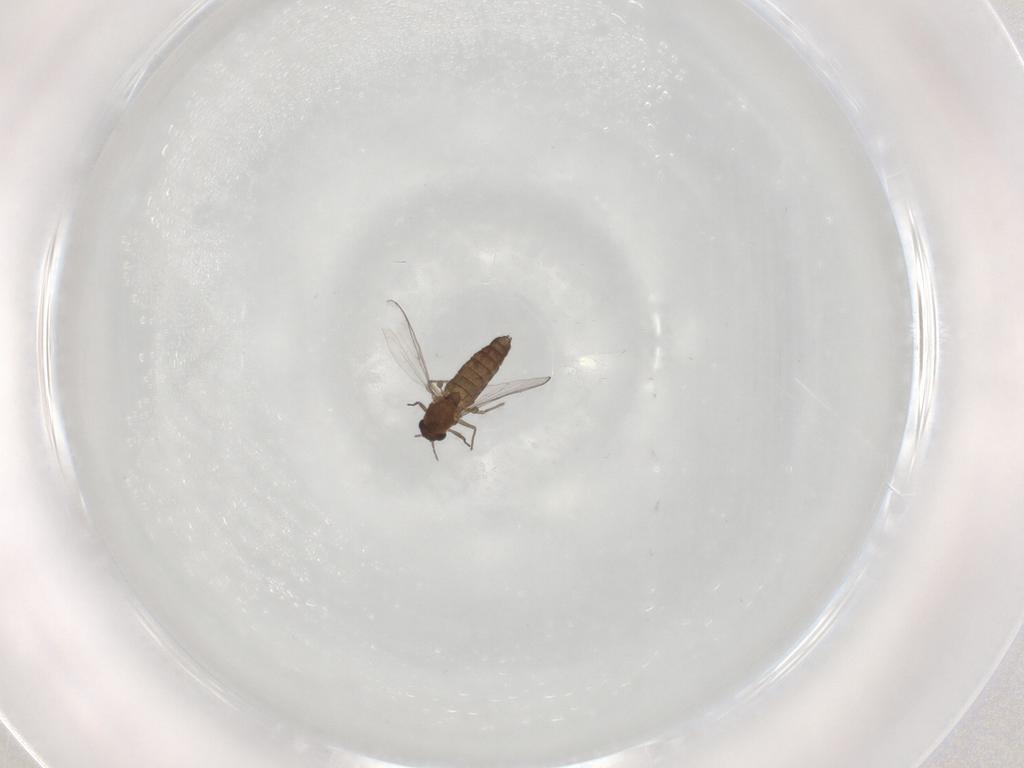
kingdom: Animalia
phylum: Arthropoda
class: Insecta
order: Diptera
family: Chironomidae
